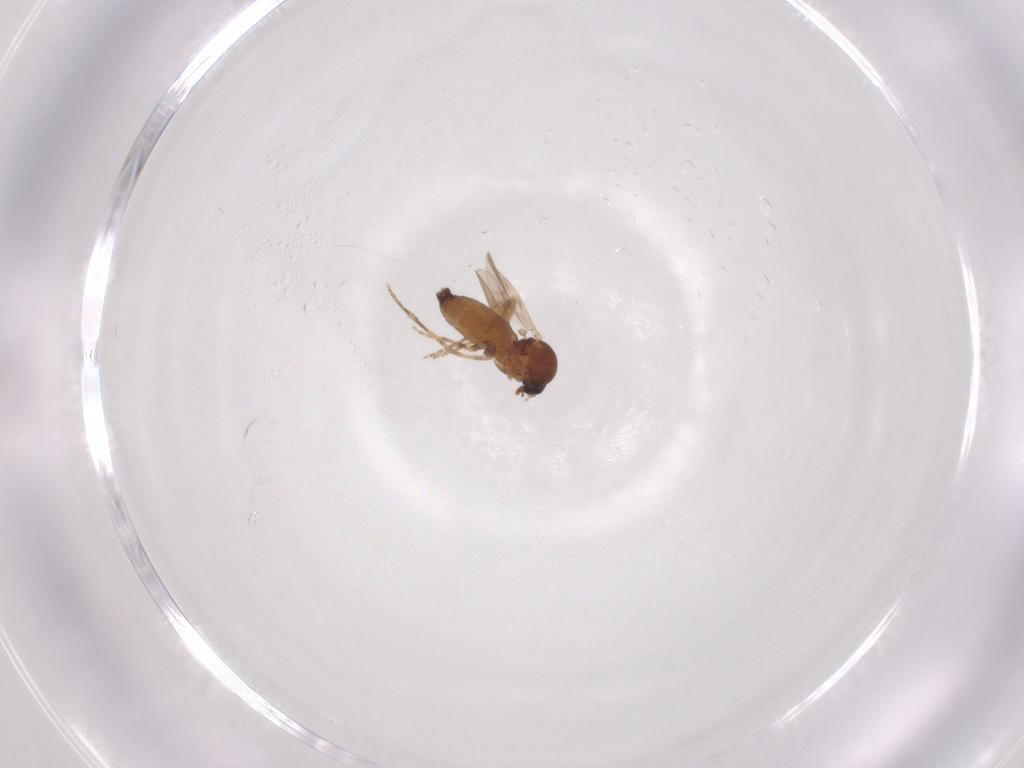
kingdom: Animalia
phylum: Arthropoda
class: Insecta
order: Diptera
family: Ceratopogonidae
